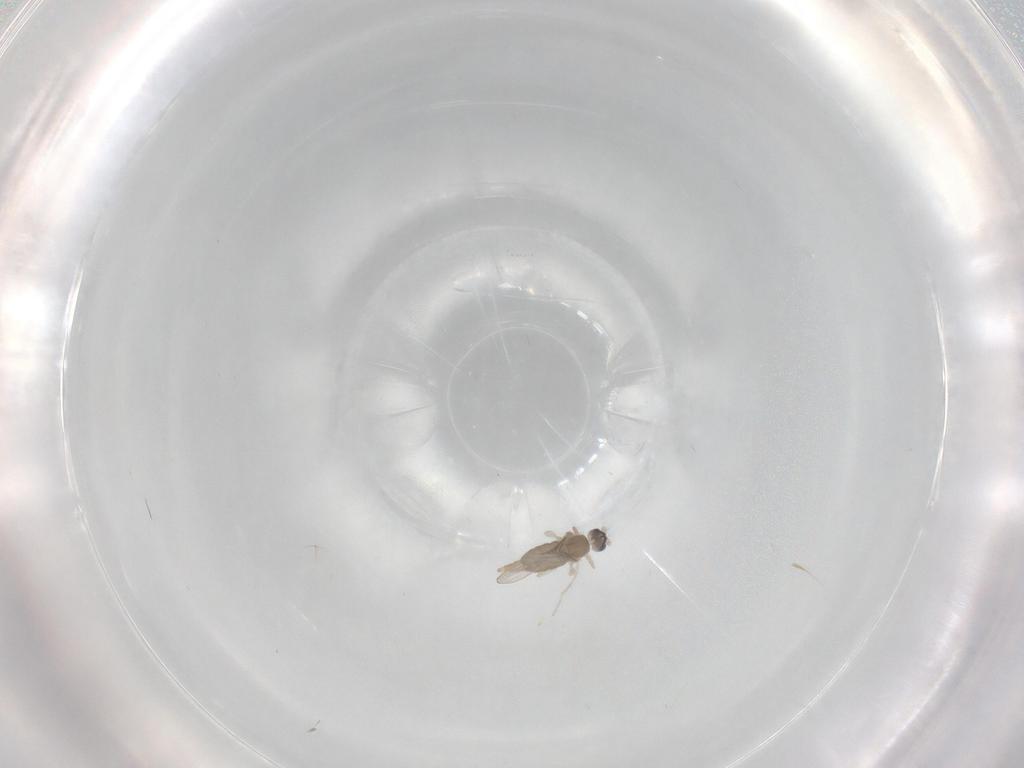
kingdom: Animalia
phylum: Arthropoda
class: Insecta
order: Diptera
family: Cecidomyiidae
